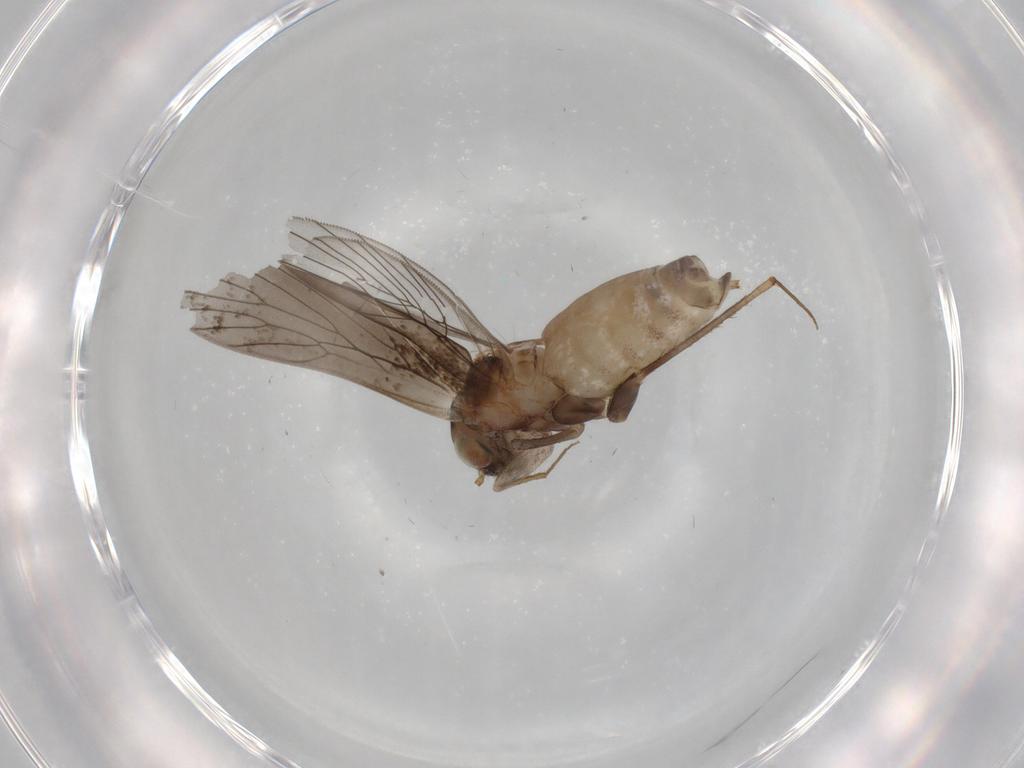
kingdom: Animalia
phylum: Arthropoda
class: Insecta
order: Psocodea
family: Lepidopsocidae
